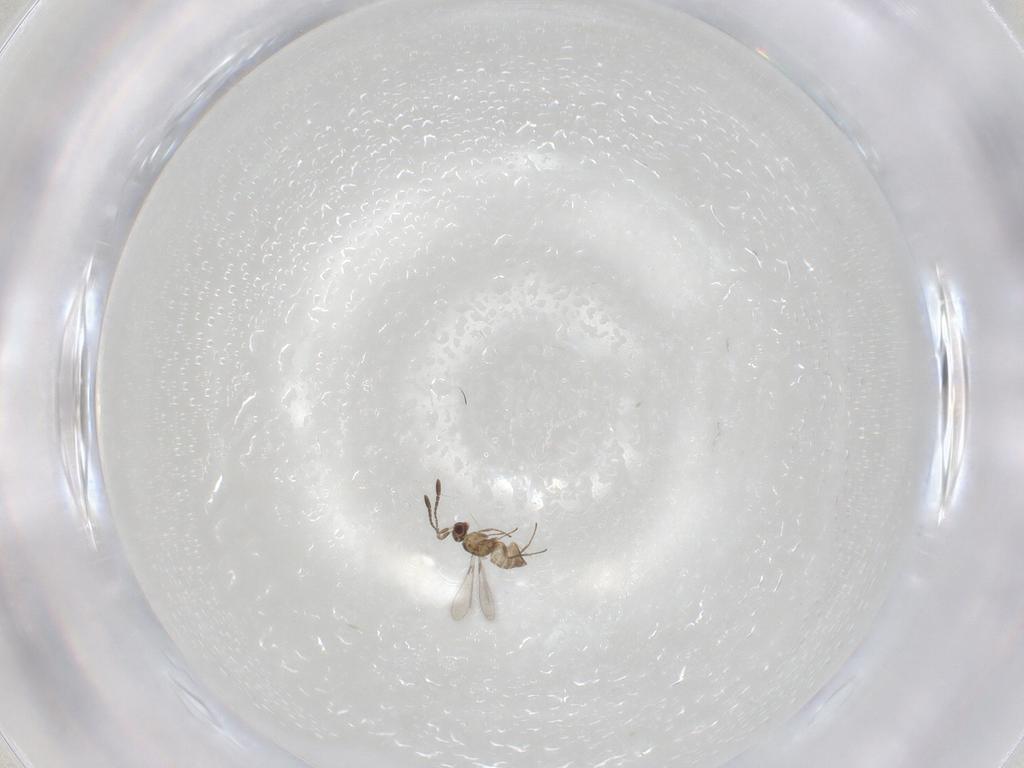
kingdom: Animalia
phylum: Arthropoda
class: Insecta
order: Hymenoptera
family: Mymaridae
